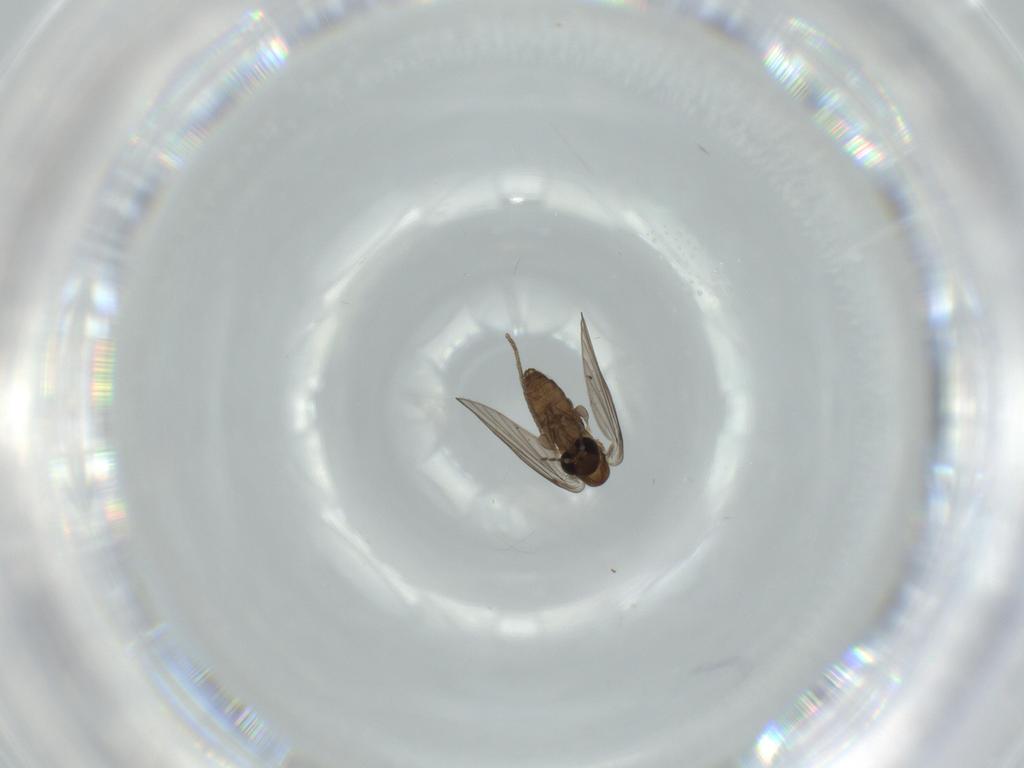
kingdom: Animalia
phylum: Arthropoda
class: Insecta
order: Diptera
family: Psychodidae
